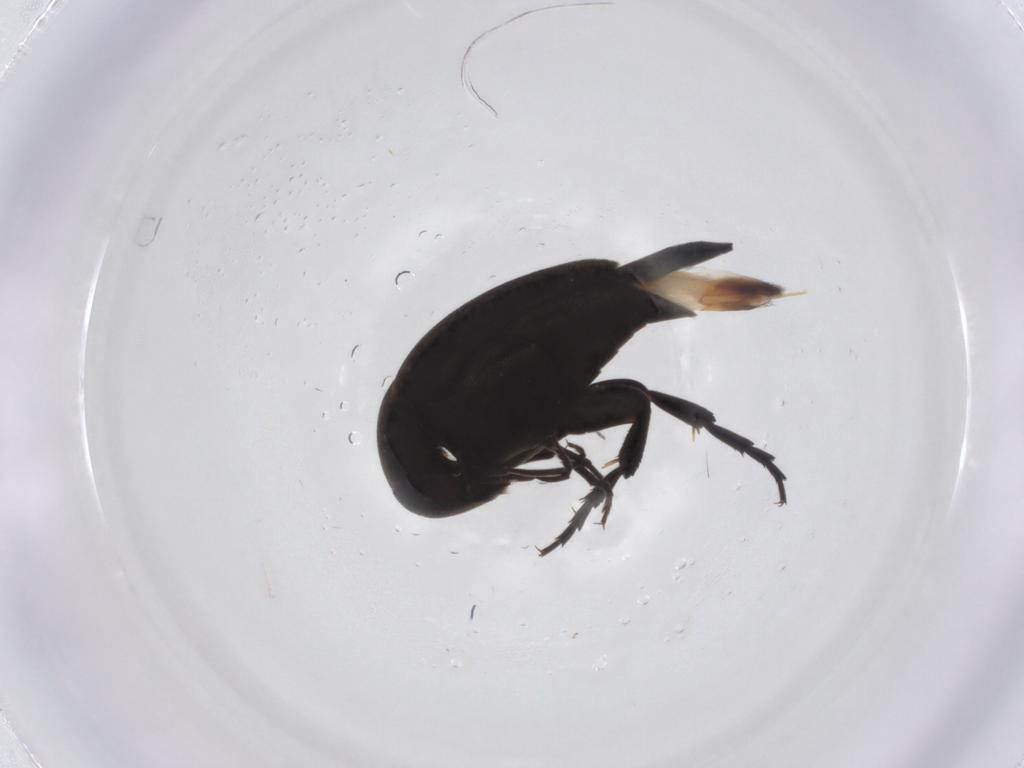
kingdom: Animalia
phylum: Arthropoda
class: Insecta
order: Coleoptera
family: Mordellidae
